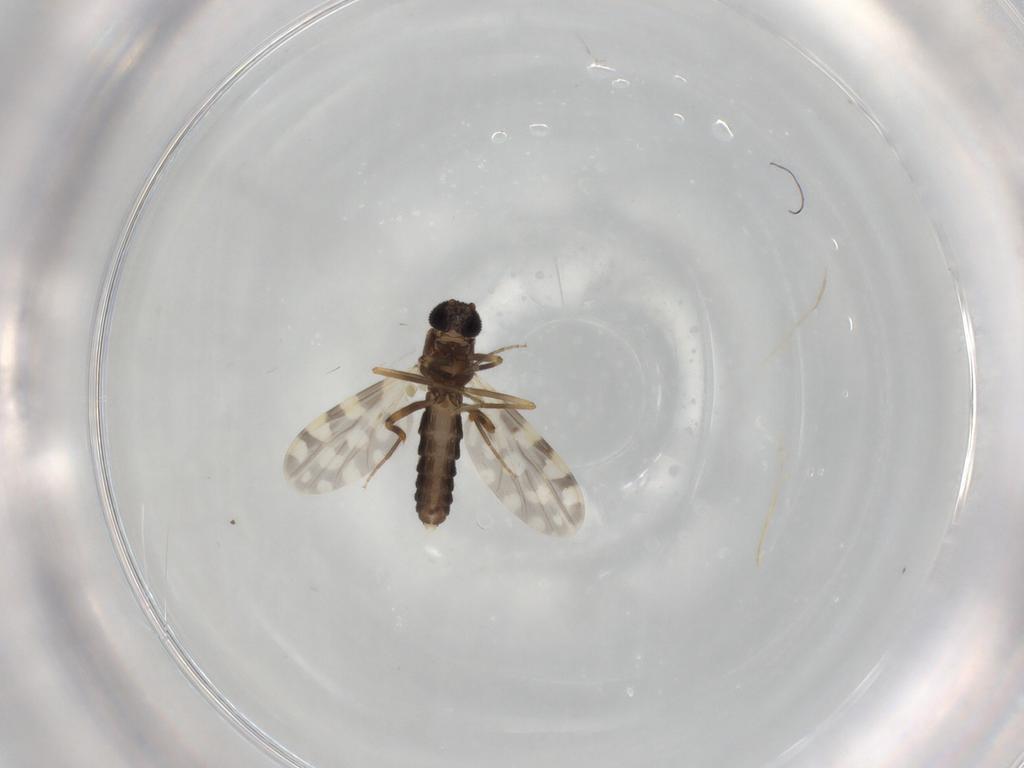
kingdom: Animalia
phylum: Arthropoda
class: Insecta
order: Diptera
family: Ceratopogonidae
